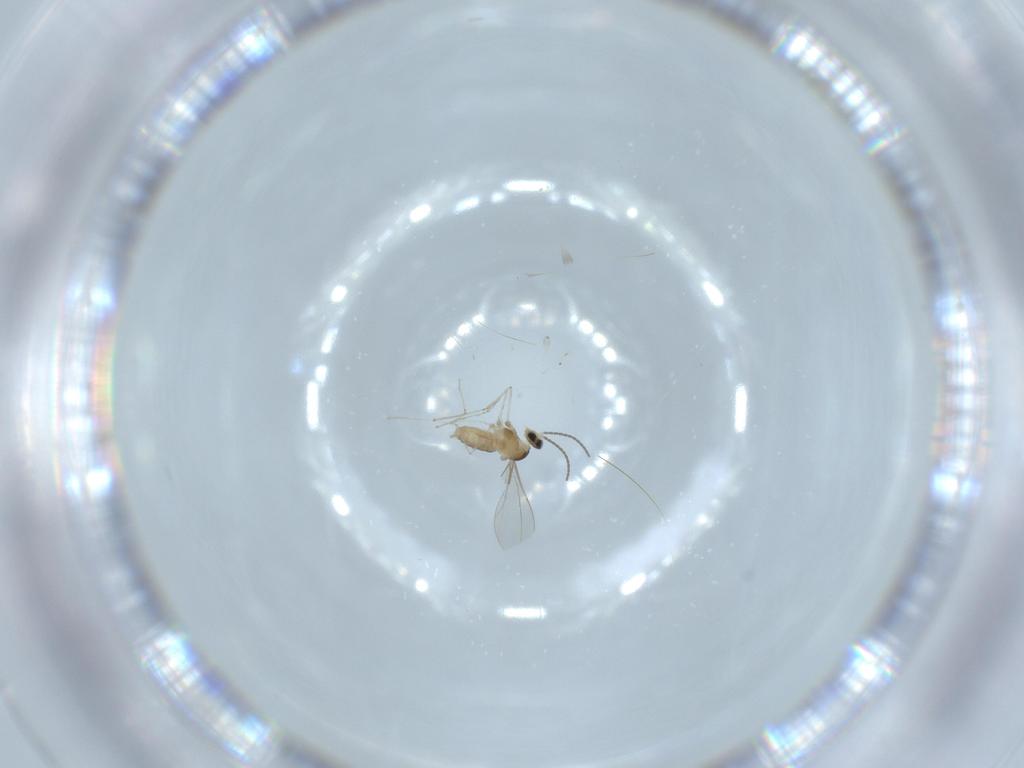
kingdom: Animalia
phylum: Arthropoda
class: Insecta
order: Diptera
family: Cecidomyiidae
